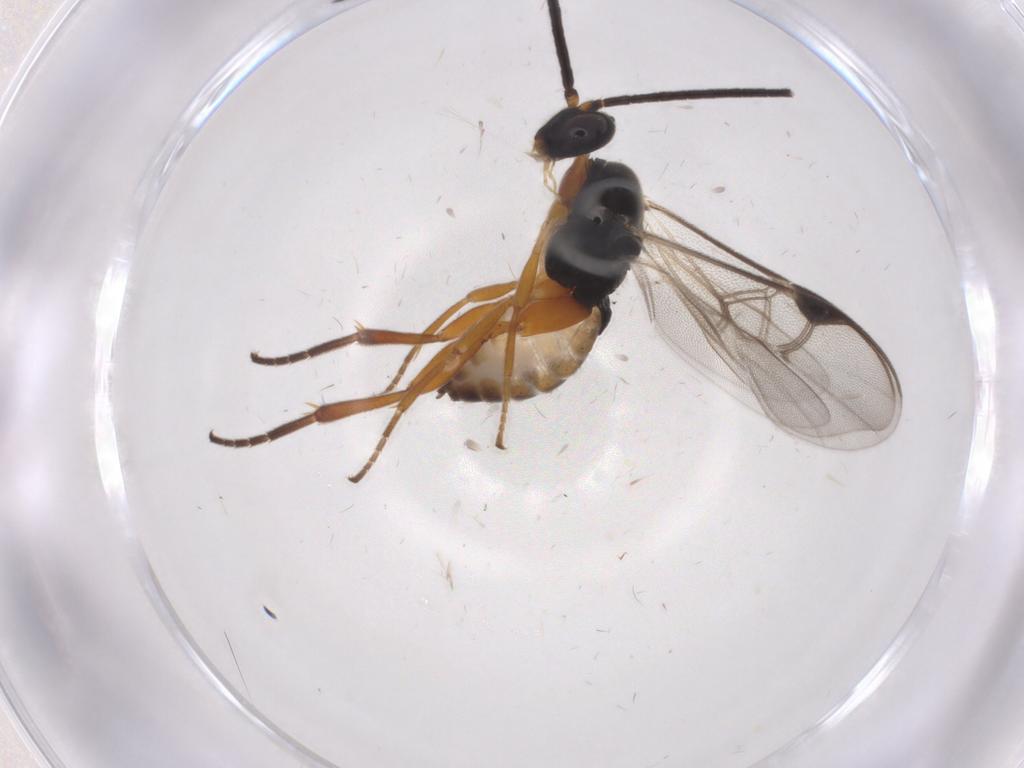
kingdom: Animalia
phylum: Arthropoda
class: Insecta
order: Hymenoptera
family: Braconidae
